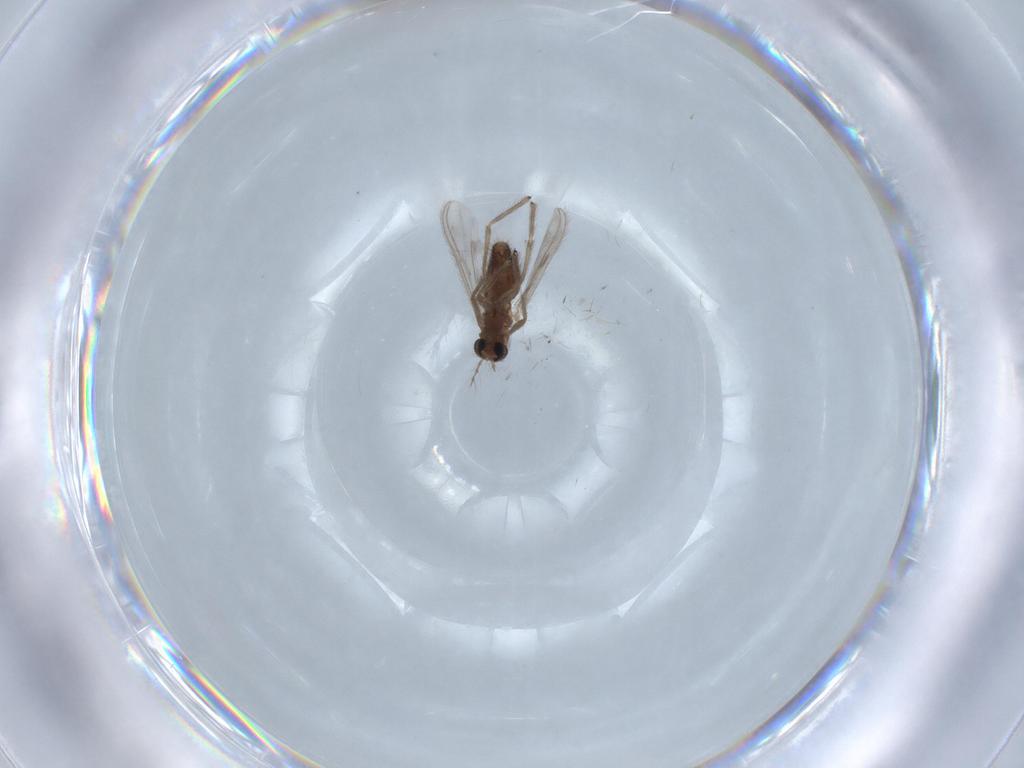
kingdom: Animalia
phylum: Arthropoda
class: Insecta
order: Diptera
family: Chironomidae
